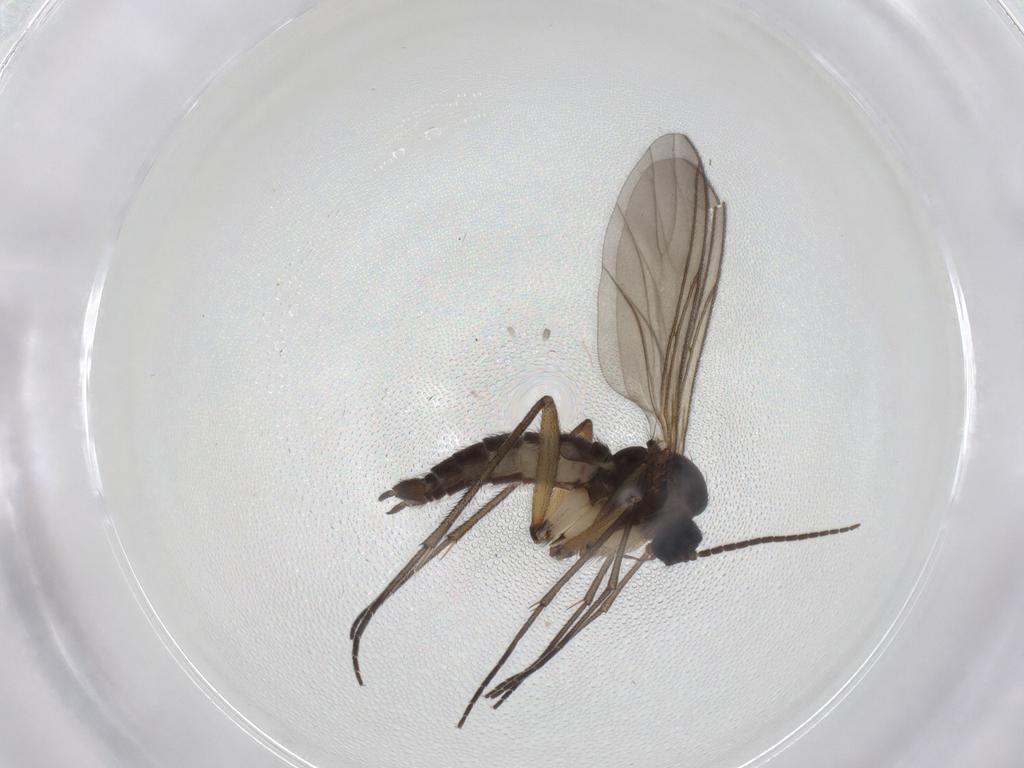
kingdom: Animalia
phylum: Arthropoda
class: Insecta
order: Diptera
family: Sciaridae
